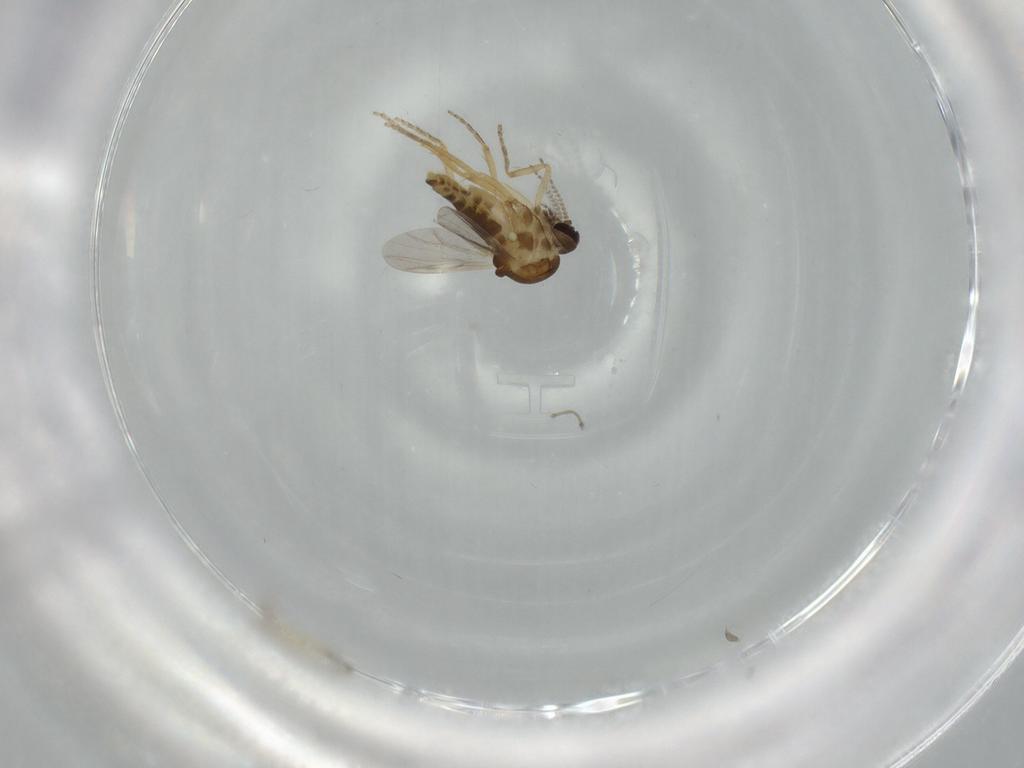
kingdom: Animalia
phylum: Arthropoda
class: Insecta
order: Diptera
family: Ceratopogonidae
